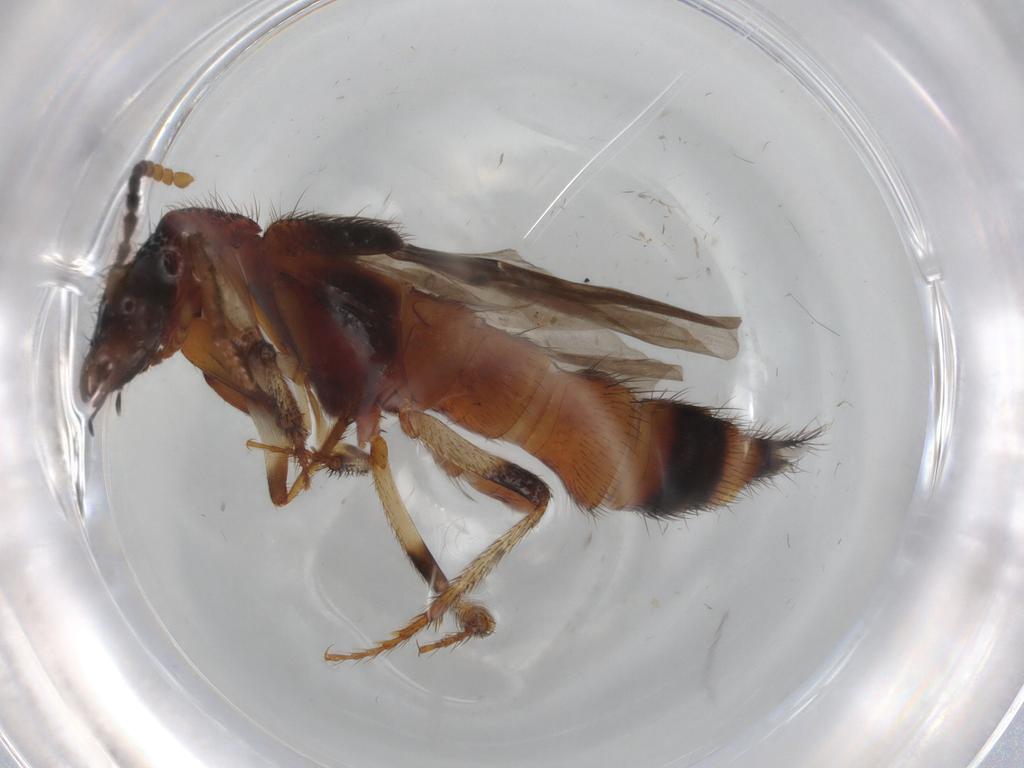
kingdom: Animalia
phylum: Arthropoda
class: Insecta
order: Coleoptera
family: Staphylinidae
